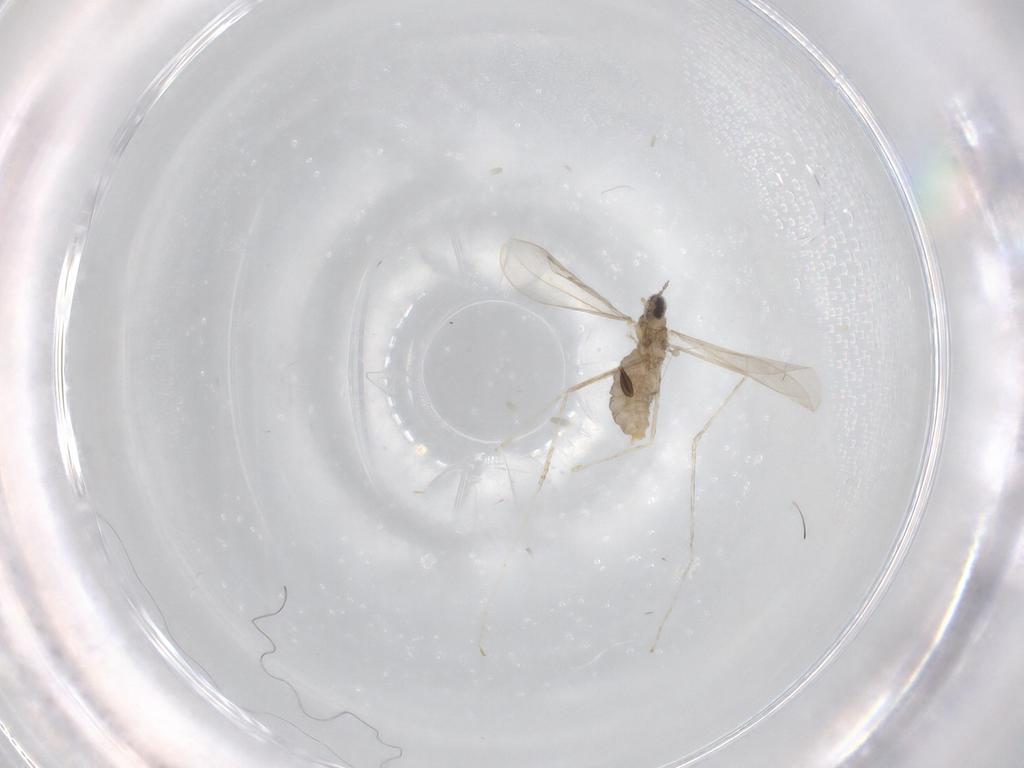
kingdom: Animalia
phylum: Arthropoda
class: Insecta
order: Diptera
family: Cecidomyiidae
